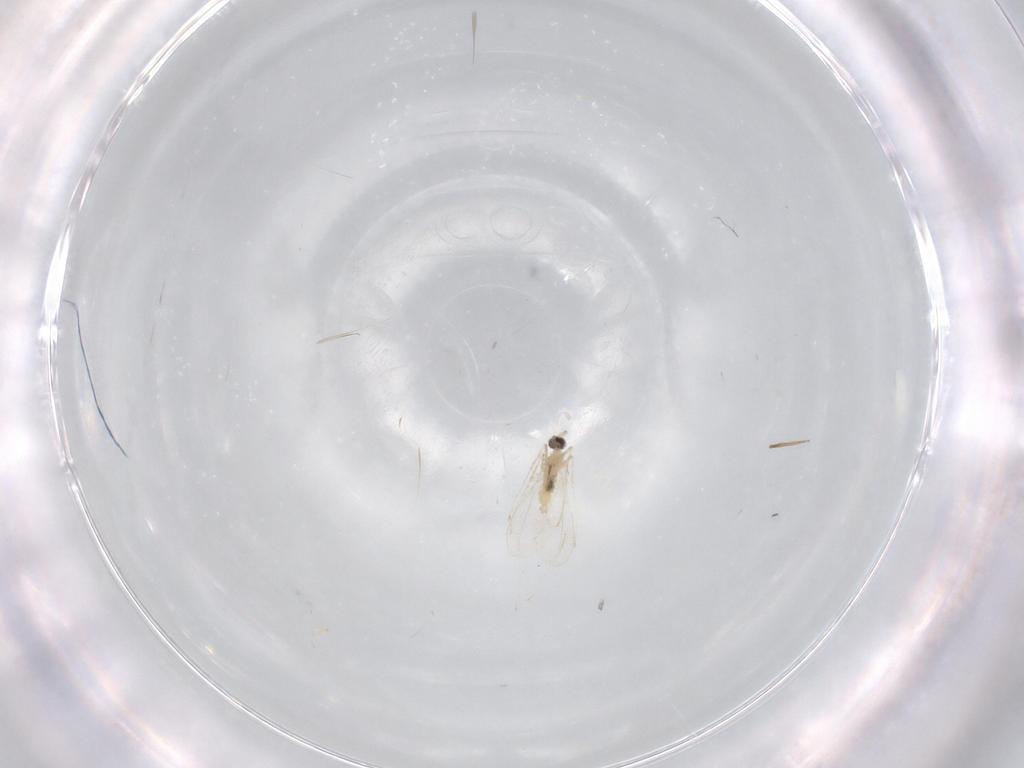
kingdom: Animalia
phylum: Arthropoda
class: Insecta
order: Diptera
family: Cecidomyiidae
